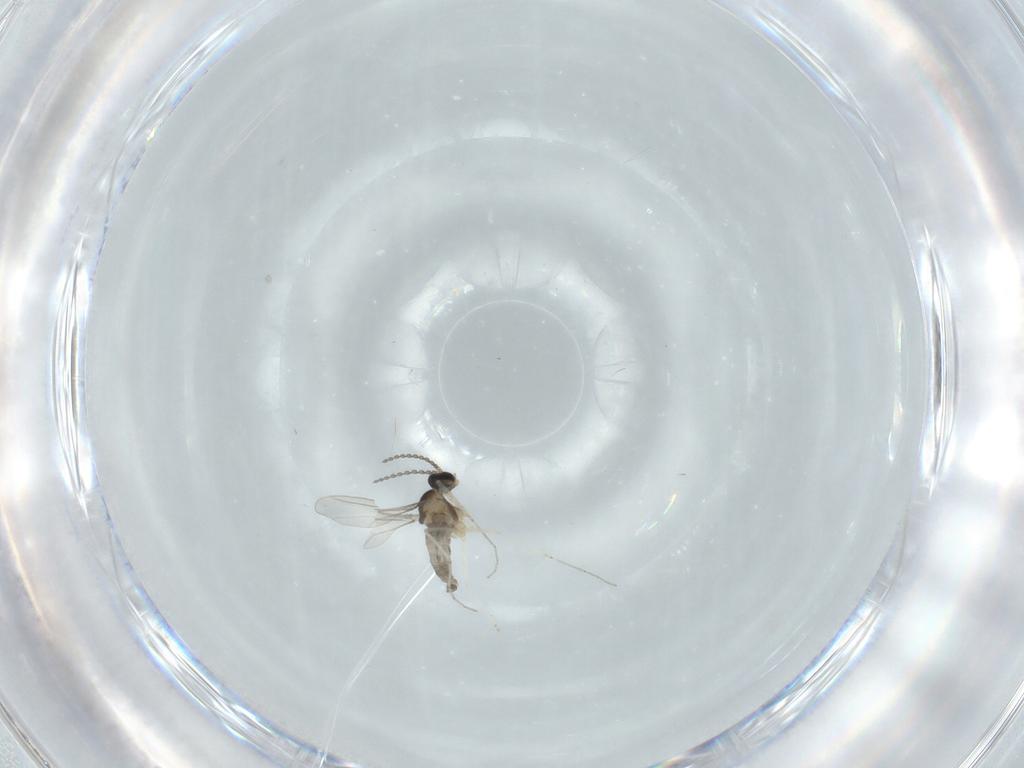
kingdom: Animalia
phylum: Arthropoda
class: Insecta
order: Diptera
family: Cecidomyiidae
